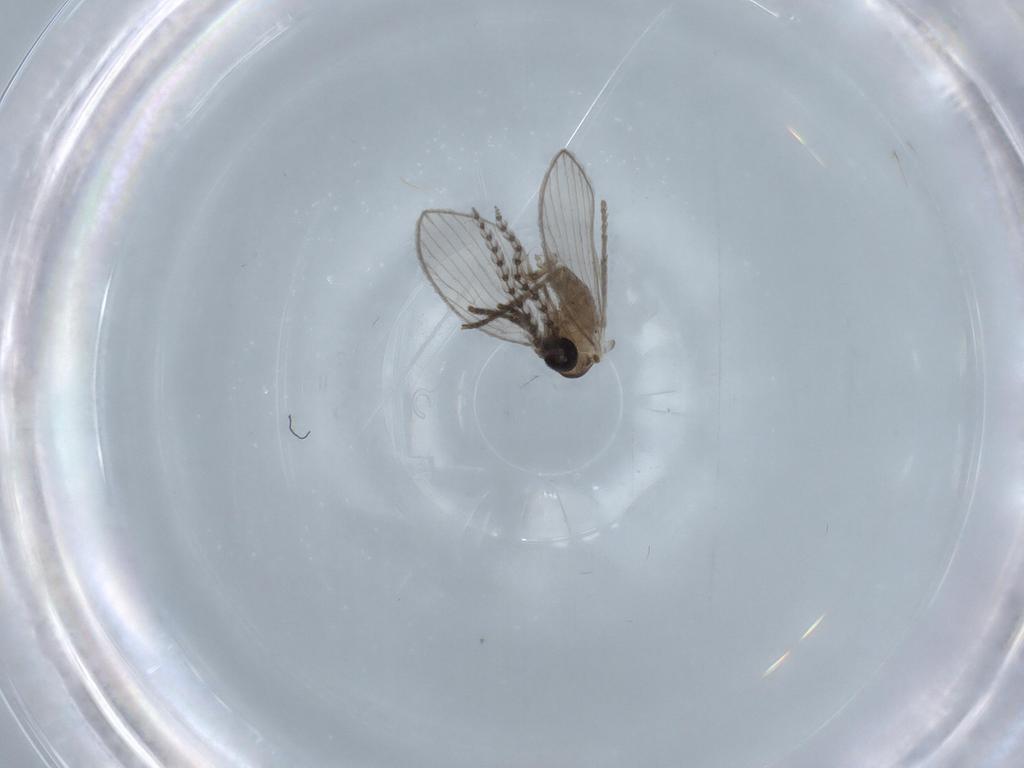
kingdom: Animalia
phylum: Arthropoda
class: Insecta
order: Diptera
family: Psychodidae
